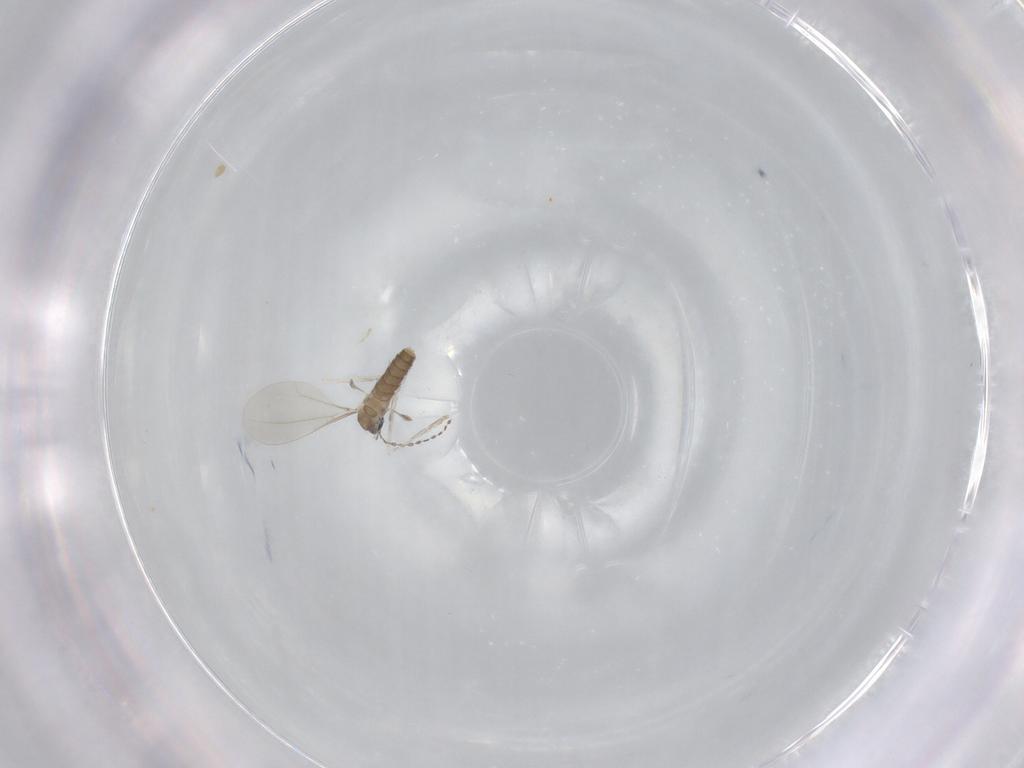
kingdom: Animalia
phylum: Arthropoda
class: Insecta
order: Diptera
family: Cecidomyiidae
